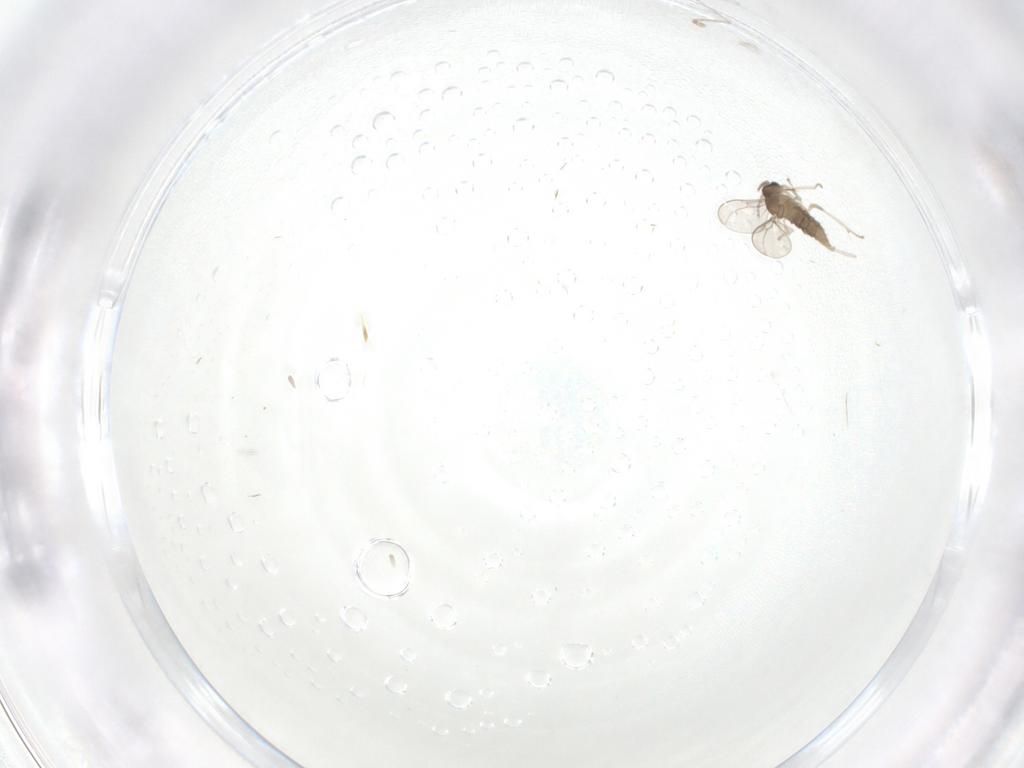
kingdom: Animalia
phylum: Arthropoda
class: Insecta
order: Diptera
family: Cecidomyiidae
